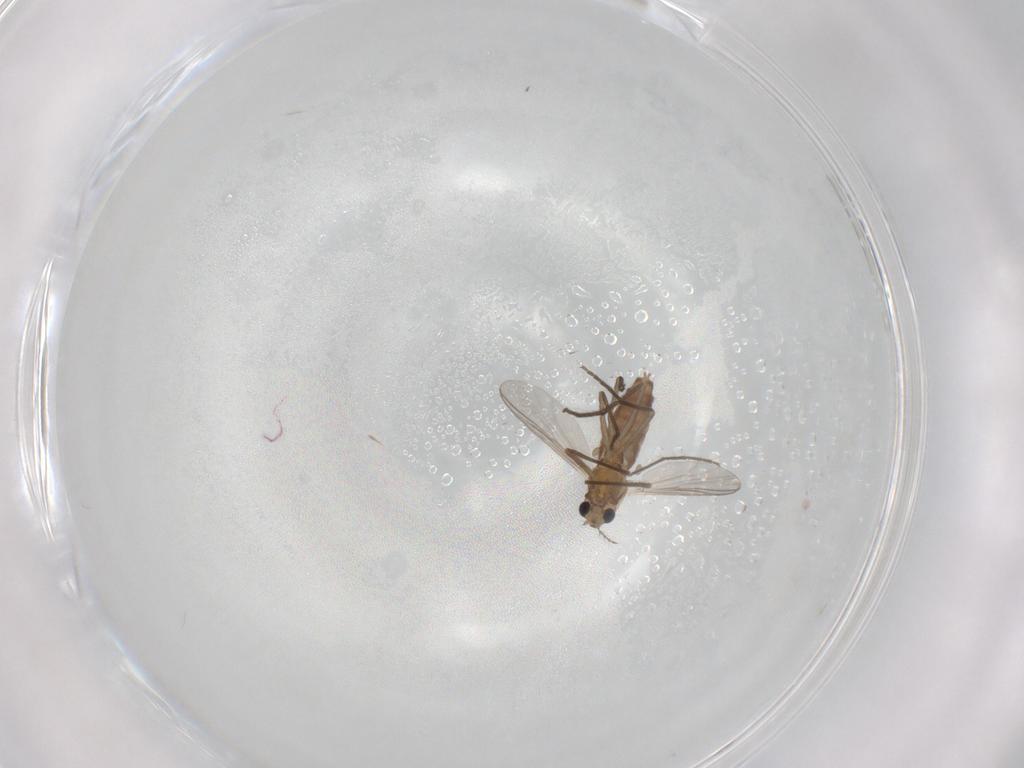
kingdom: Animalia
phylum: Arthropoda
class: Insecta
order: Diptera
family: Chironomidae
